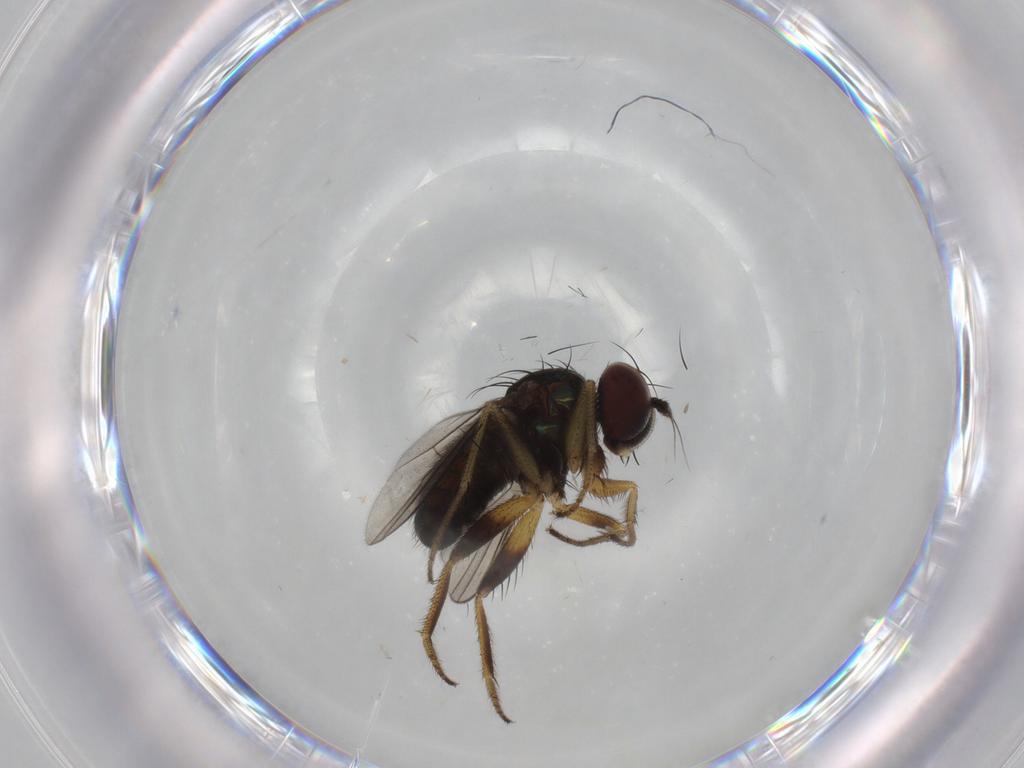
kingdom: Animalia
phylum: Arthropoda
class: Insecta
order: Diptera
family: Dolichopodidae
